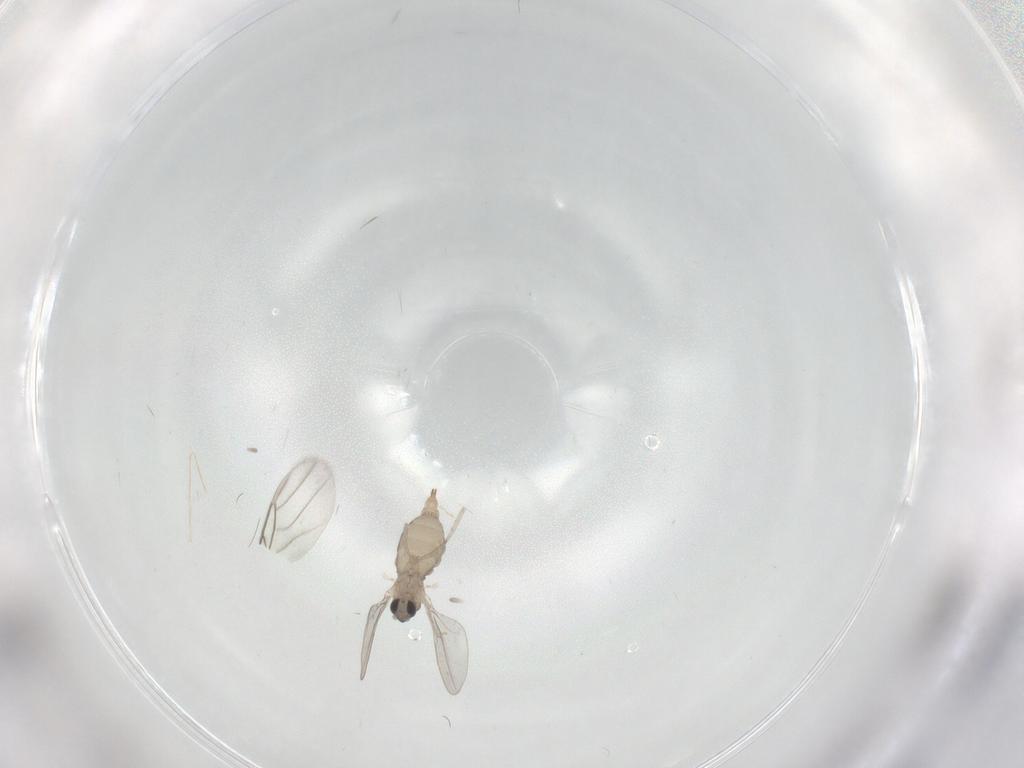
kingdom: Animalia
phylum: Arthropoda
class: Insecta
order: Diptera
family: Cecidomyiidae
